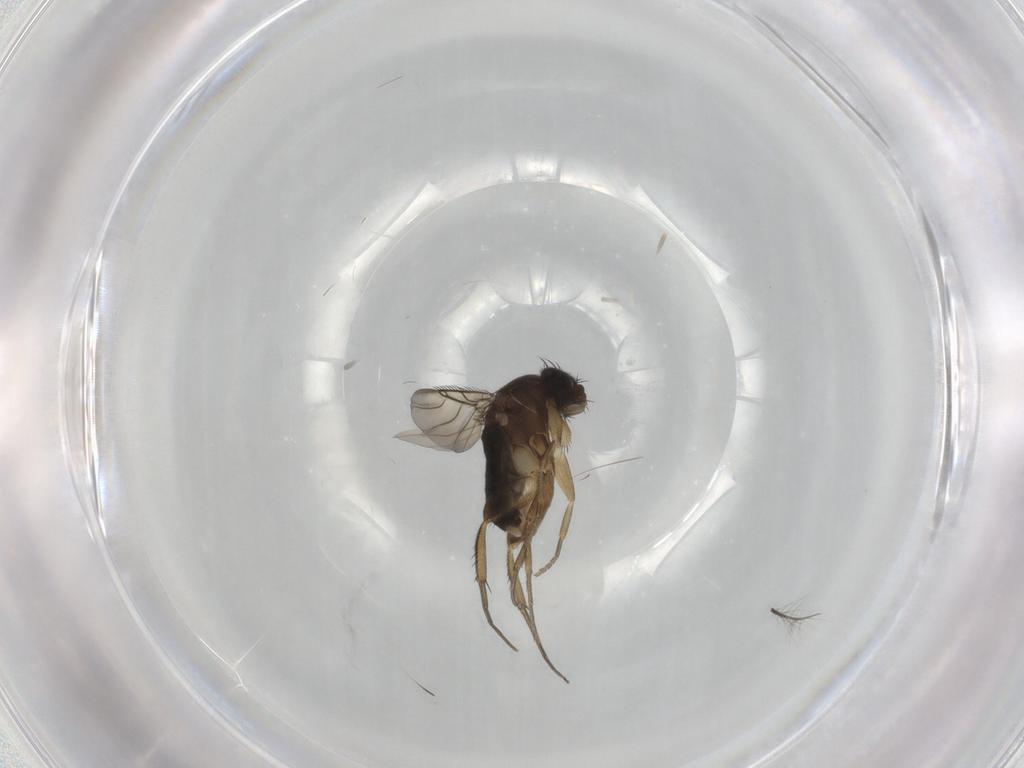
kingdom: Animalia
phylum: Arthropoda
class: Insecta
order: Diptera
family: Phoridae
